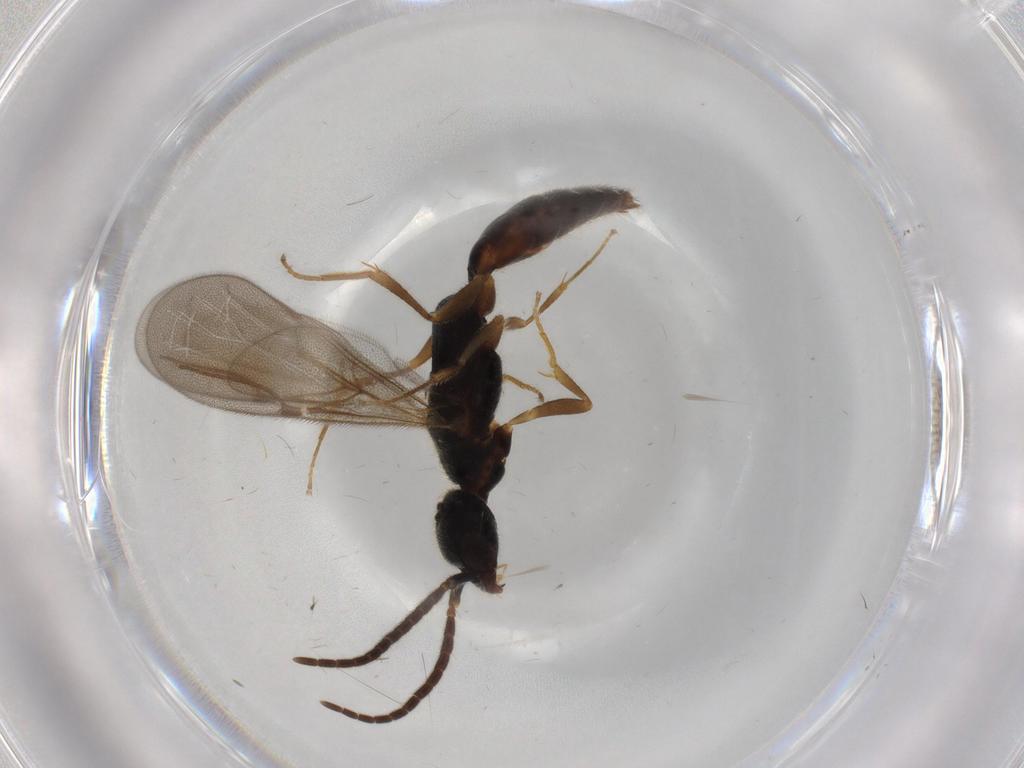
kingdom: Animalia
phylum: Arthropoda
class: Insecta
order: Hymenoptera
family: Bethylidae
